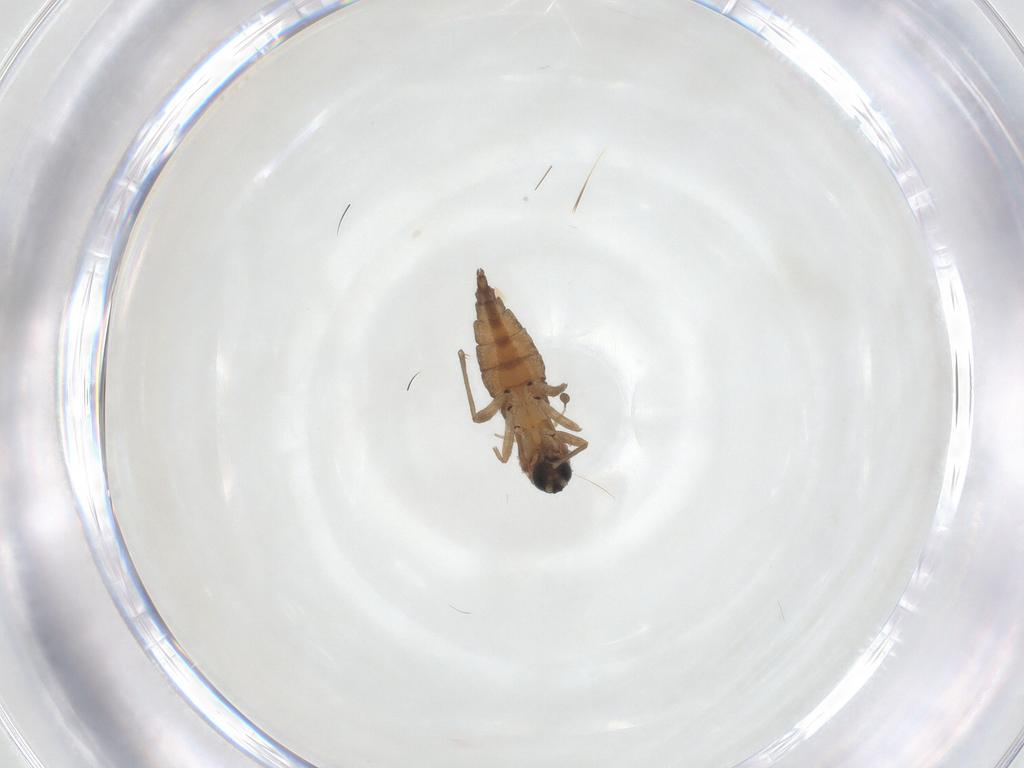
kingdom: Animalia
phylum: Arthropoda
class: Insecta
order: Diptera
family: Sciaridae
